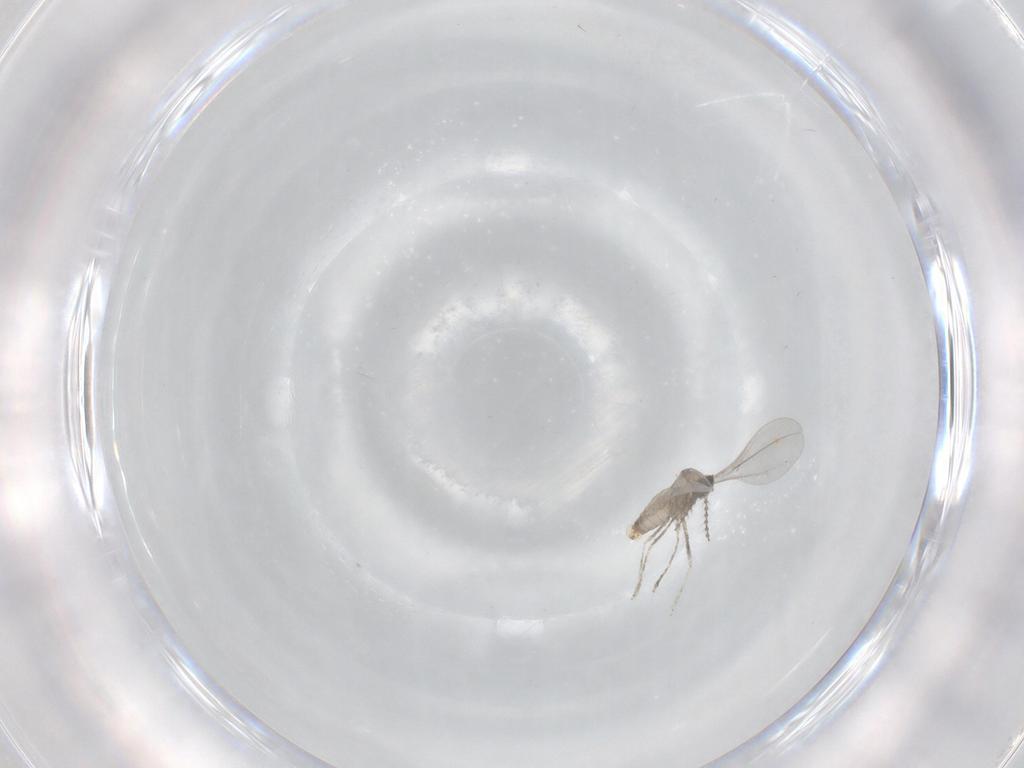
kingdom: Animalia
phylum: Arthropoda
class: Insecta
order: Diptera
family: Cecidomyiidae
